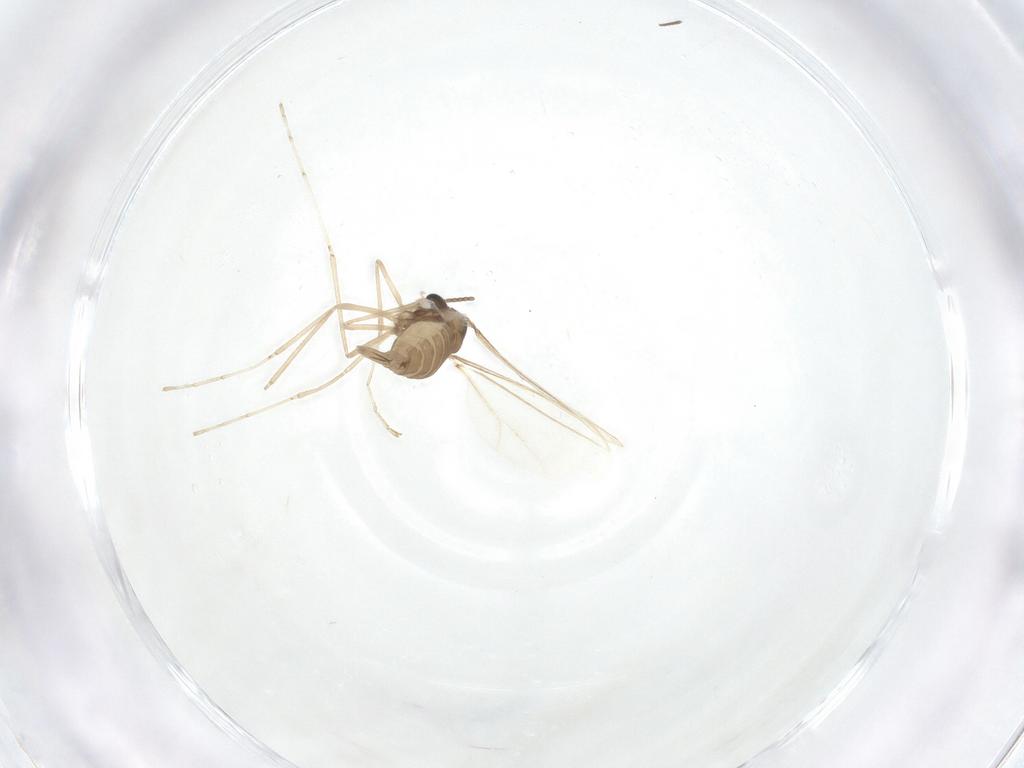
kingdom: Animalia
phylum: Arthropoda
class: Insecta
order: Diptera
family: Cecidomyiidae
